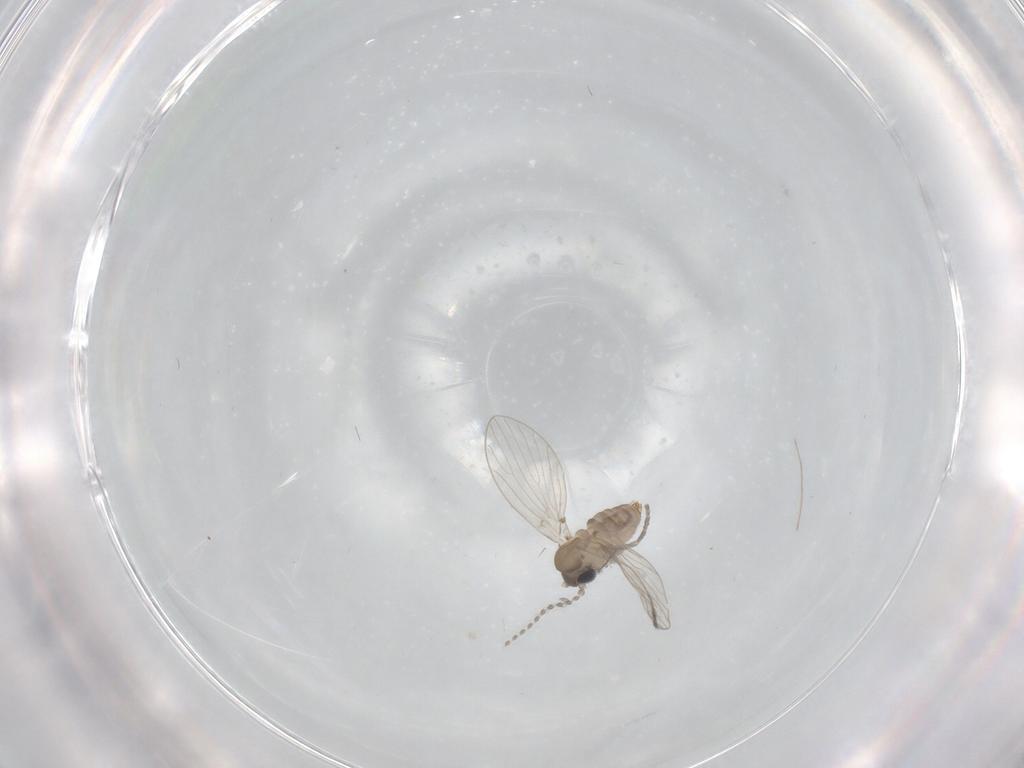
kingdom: Animalia
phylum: Arthropoda
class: Insecta
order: Diptera
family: Psychodidae
